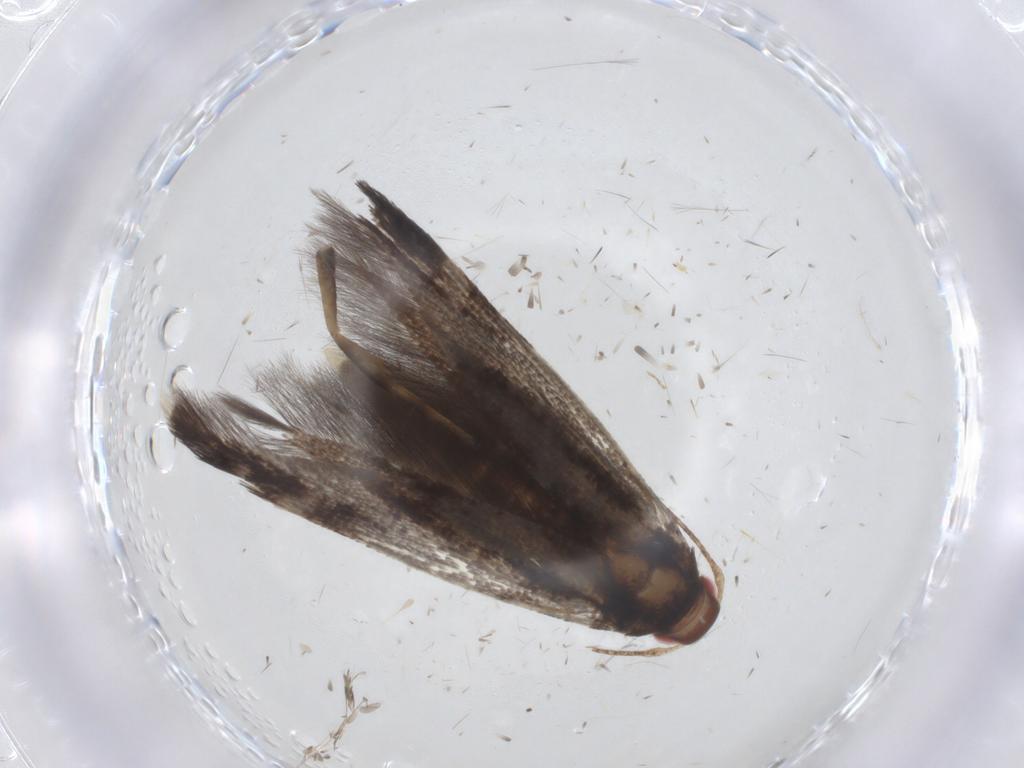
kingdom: Animalia
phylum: Arthropoda
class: Insecta
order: Lepidoptera
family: Gelechiidae
